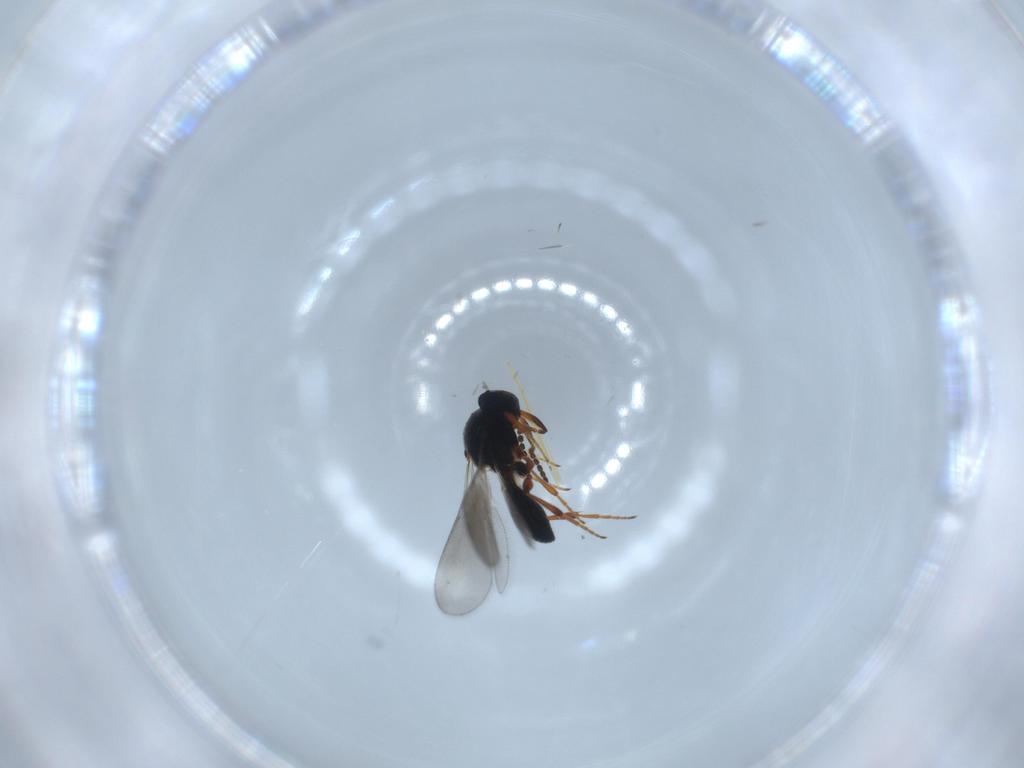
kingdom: Animalia
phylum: Arthropoda
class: Insecta
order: Hymenoptera
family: Platygastridae
